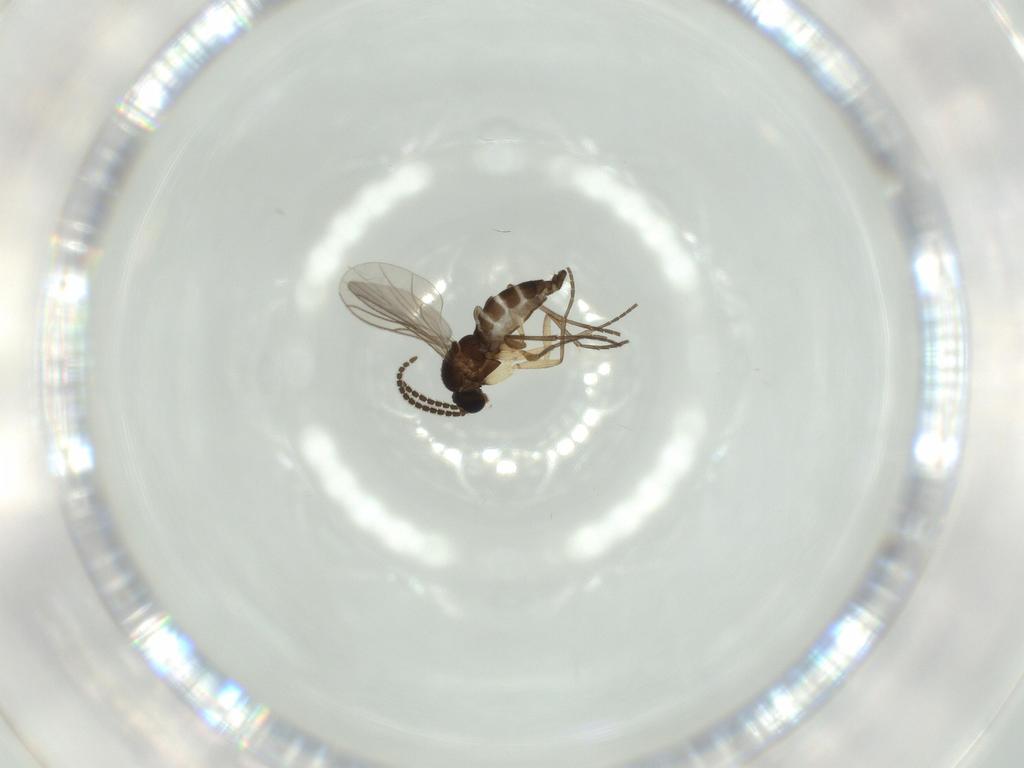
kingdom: Animalia
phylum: Arthropoda
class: Insecta
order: Diptera
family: Sciaridae
